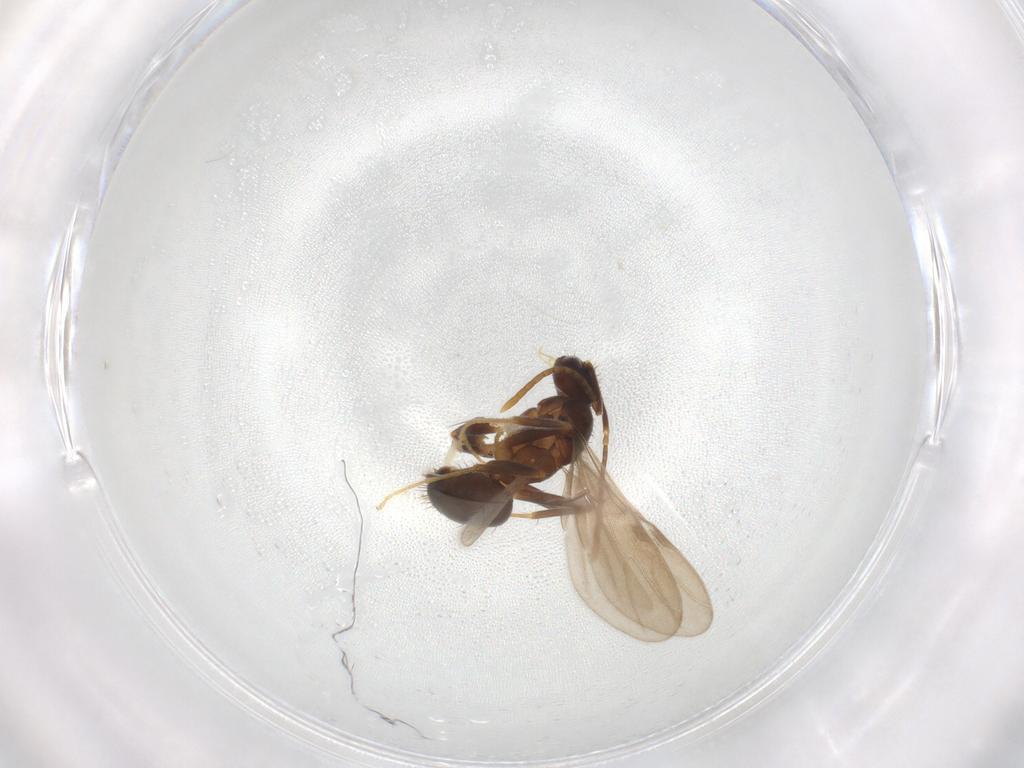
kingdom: Animalia
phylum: Arthropoda
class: Insecta
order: Hymenoptera
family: Formicidae
